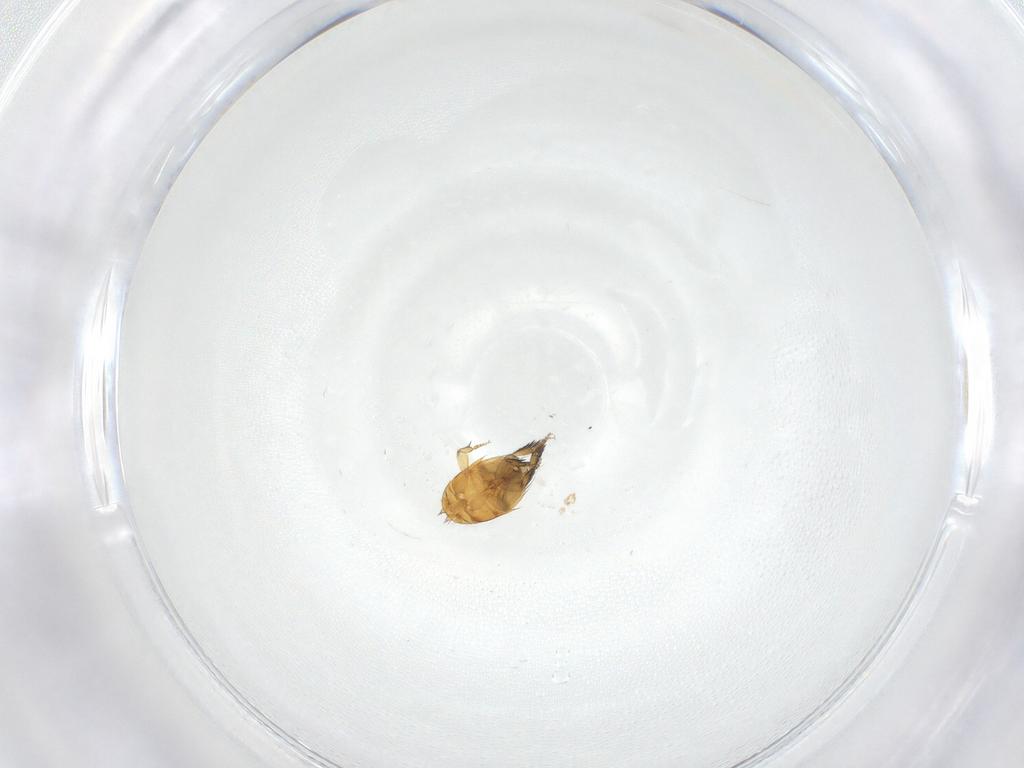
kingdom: Animalia
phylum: Arthropoda
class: Insecta
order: Diptera
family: Phoridae
